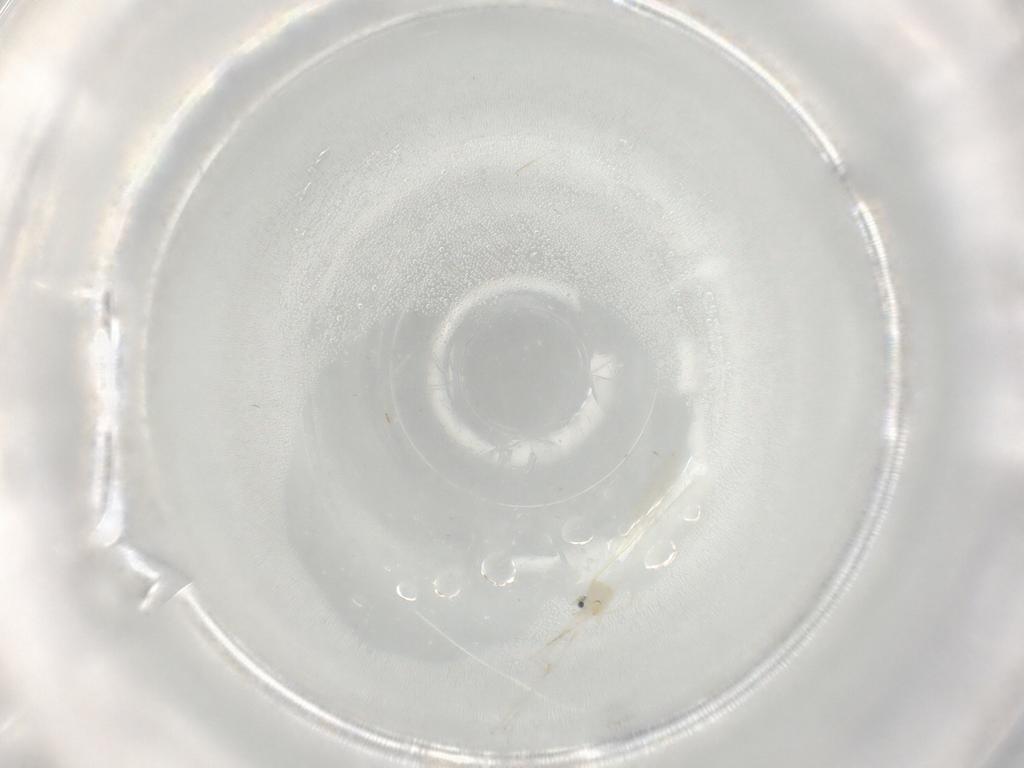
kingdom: Animalia
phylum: Arthropoda
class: Insecta
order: Diptera
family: Cecidomyiidae
